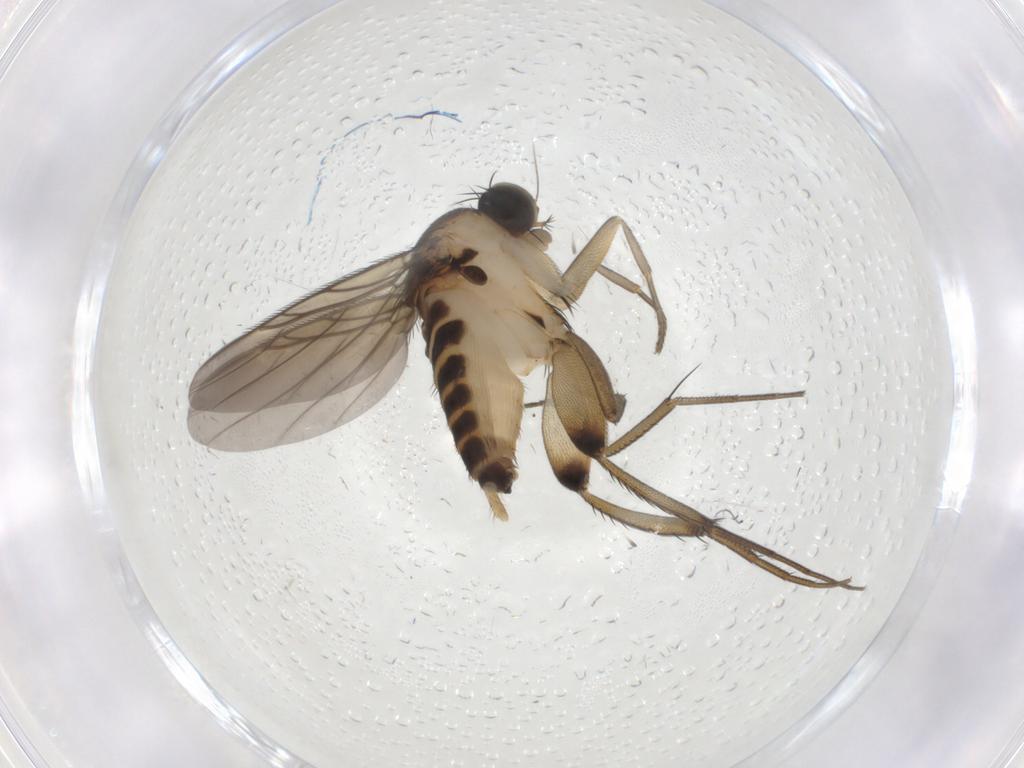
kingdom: Animalia
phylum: Arthropoda
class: Insecta
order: Diptera
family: Phoridae
